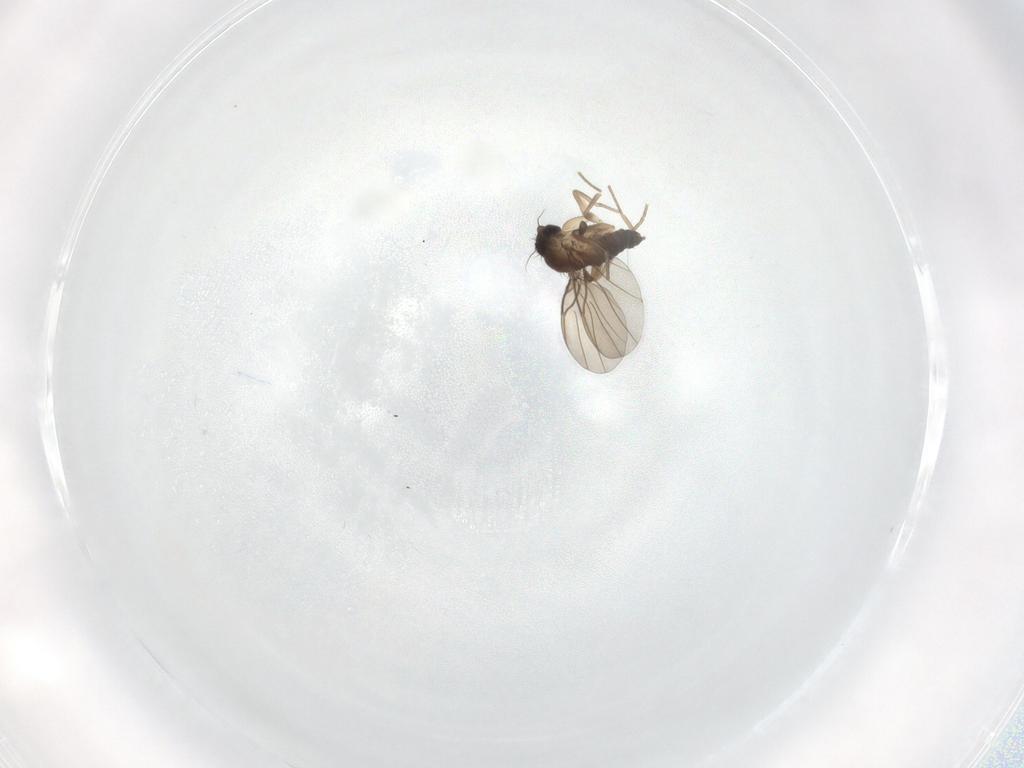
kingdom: Animalia
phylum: Arthropoda
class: Insecta
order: Diptera
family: Phoridae
